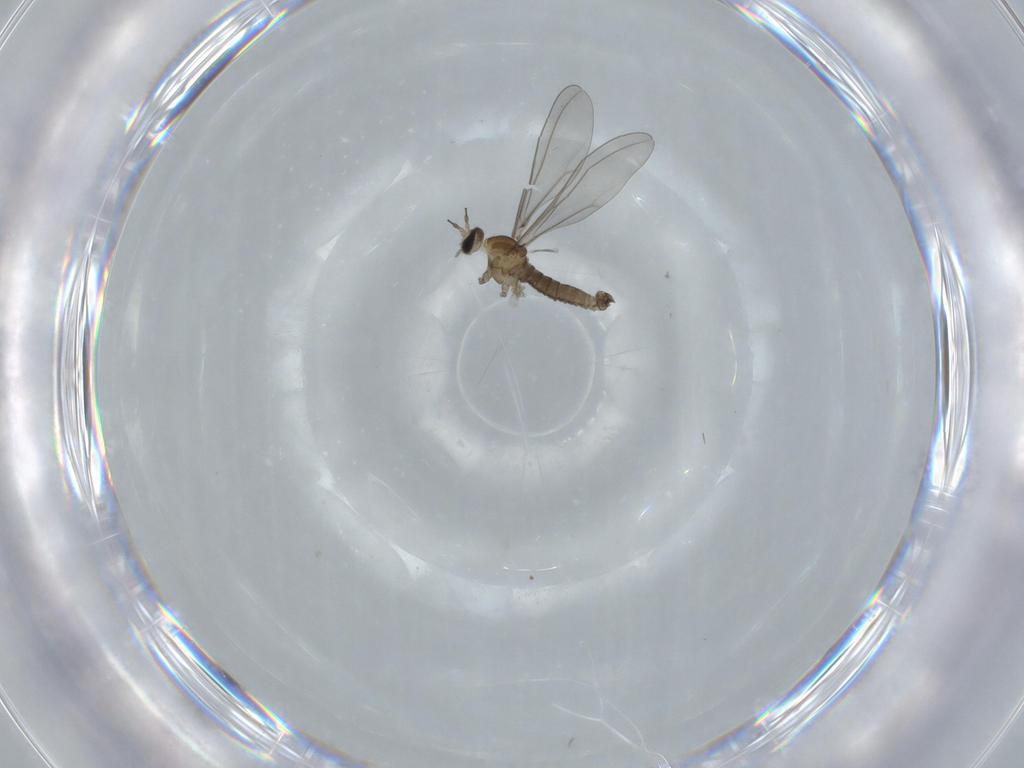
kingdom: Animalia
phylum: Arthropoda
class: Insecta
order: Diptera
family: Cecidomyiidae
